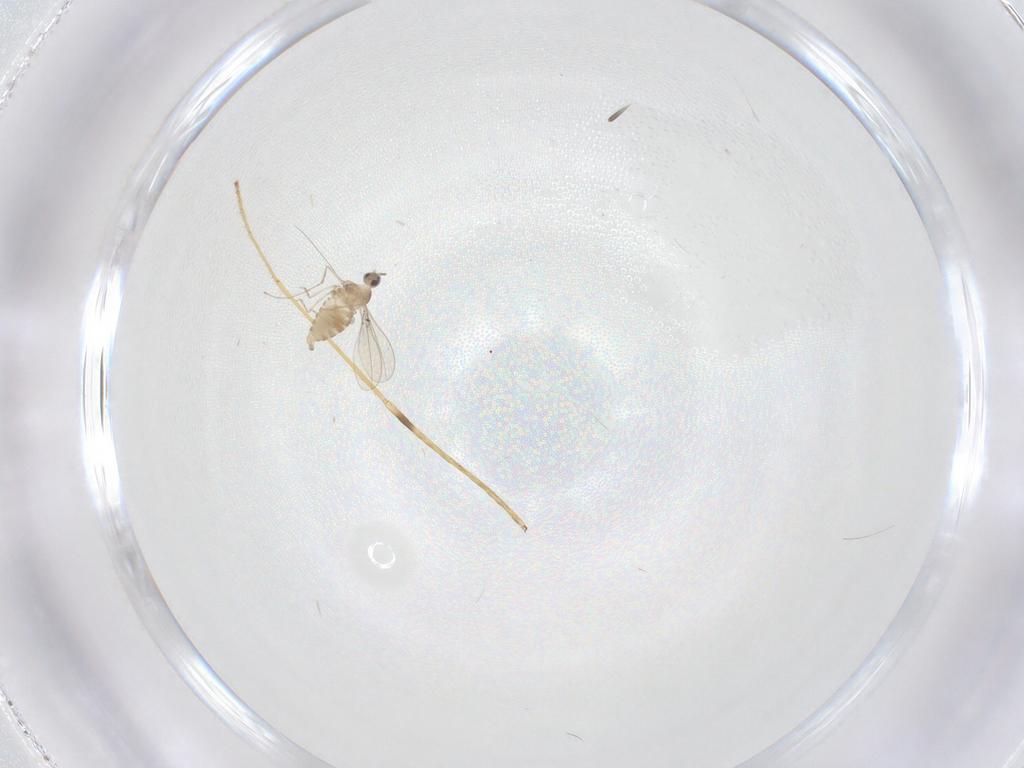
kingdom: Animalia
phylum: Arthropoda
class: Insecta
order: Diptera
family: Limoniidae
